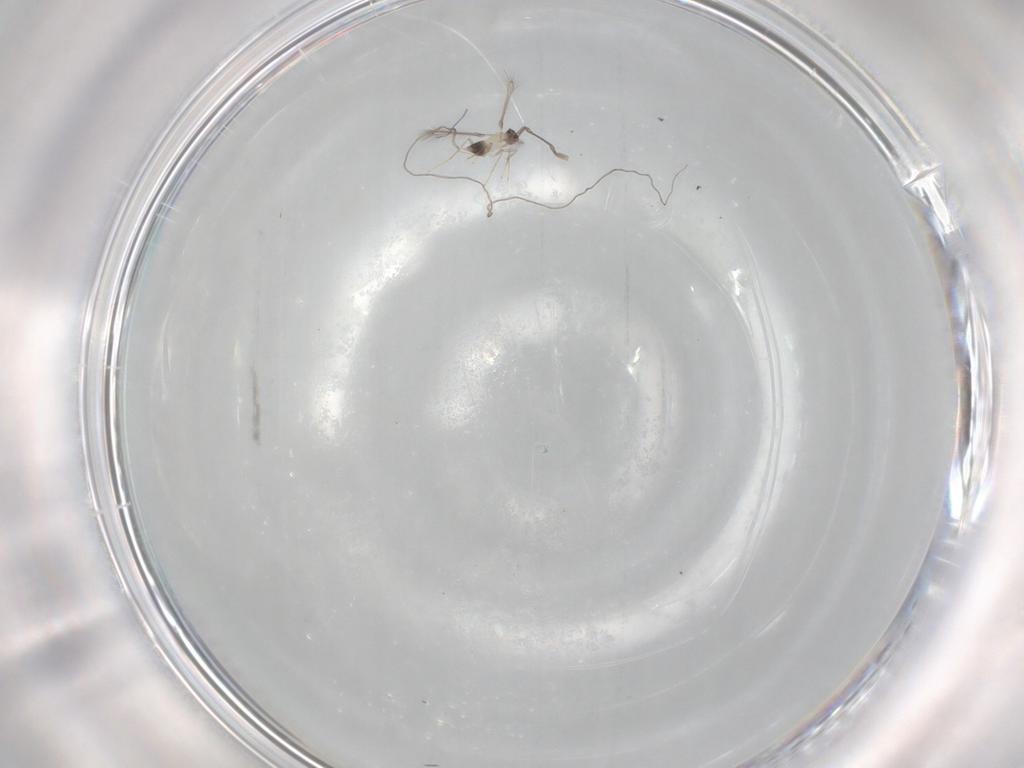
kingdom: Animalia
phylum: Arthropoda
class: Insecta
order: Hymenoptera
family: Mymaridae
